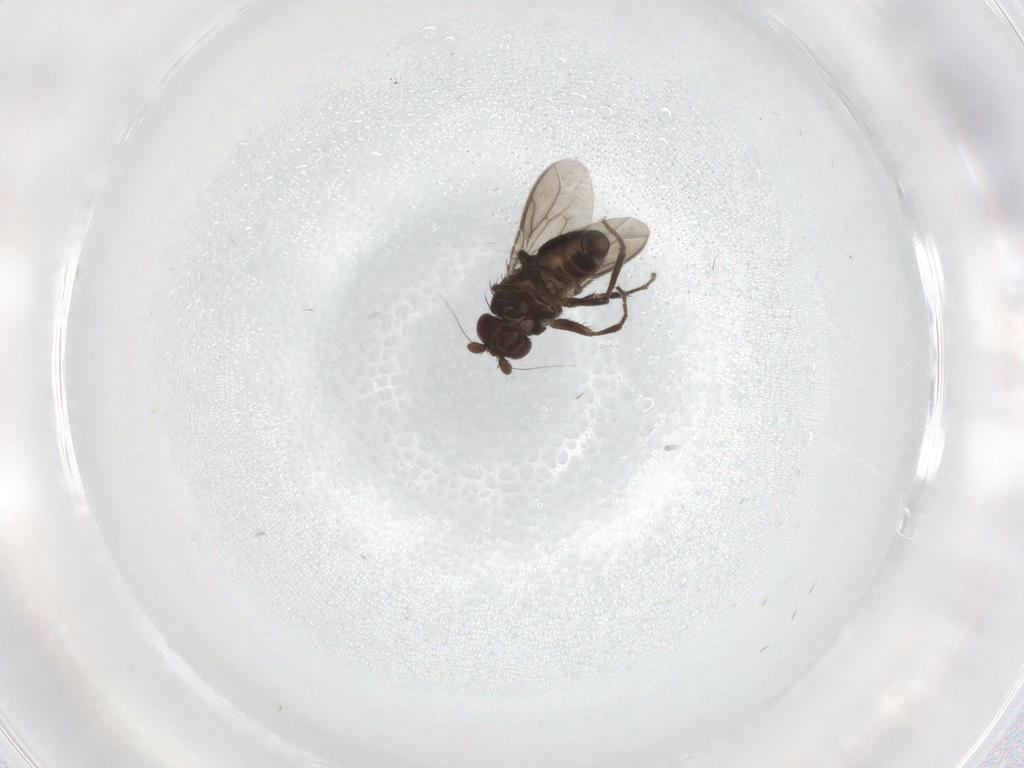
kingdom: Animalia
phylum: Arthropoda
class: Insecta
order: Diptera
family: Sphaeroceridae
